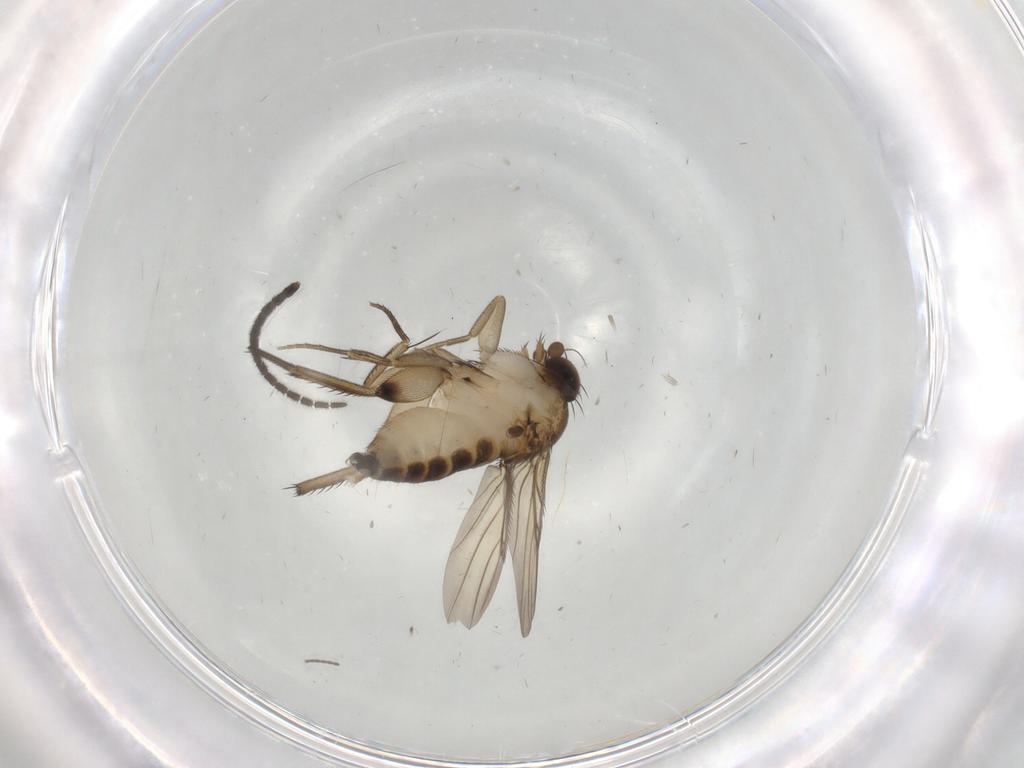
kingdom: Animalia
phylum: Arthropoda
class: Insecta
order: Diptera
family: Phoridae
